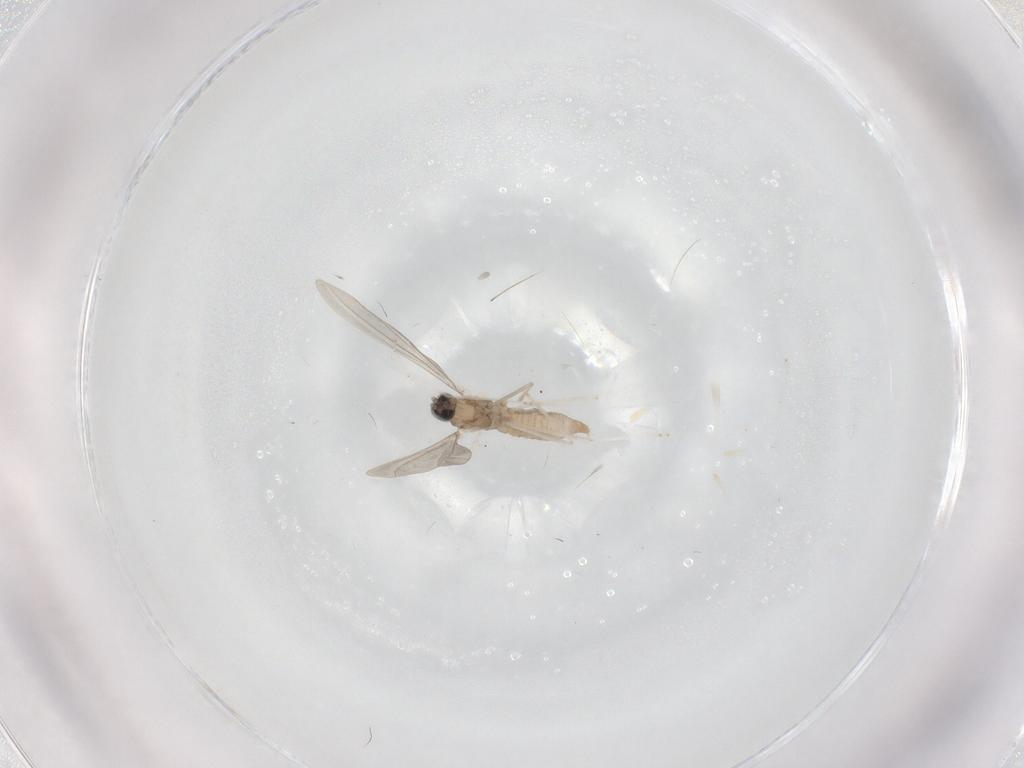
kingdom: Animalia
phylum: Arthropoda
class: Insecta
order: Diptera
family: Cecidomyiidae
